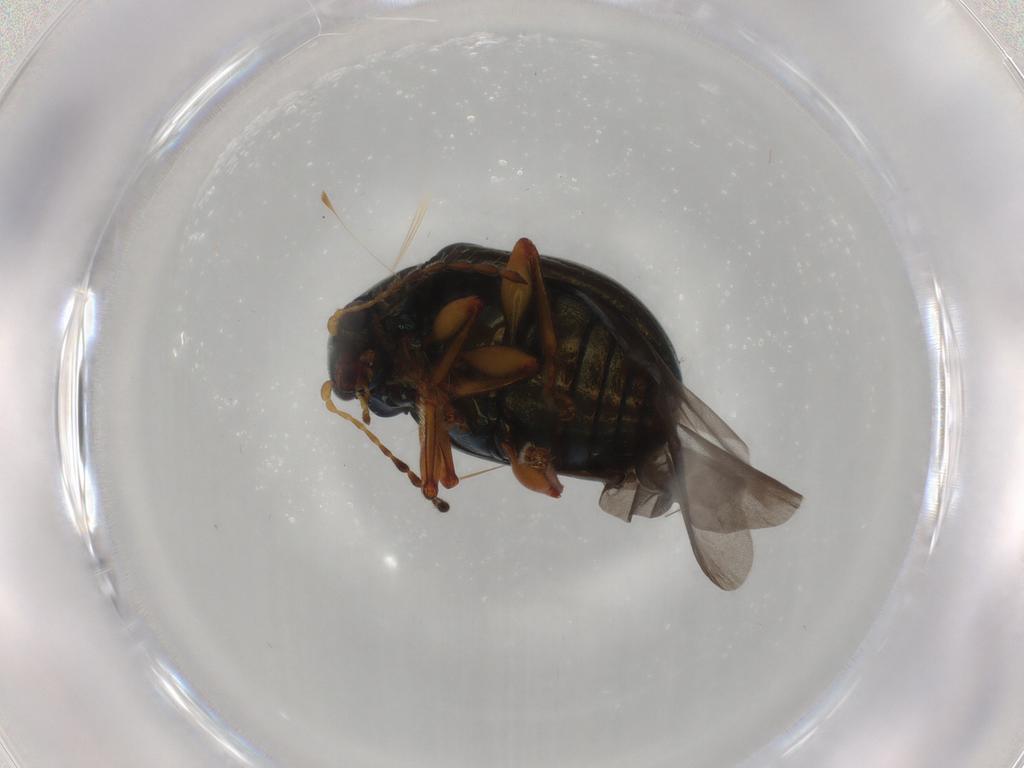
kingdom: Animalia
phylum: Arthropoda
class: Insecta
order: Coleoptera
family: Chrysomelidae
